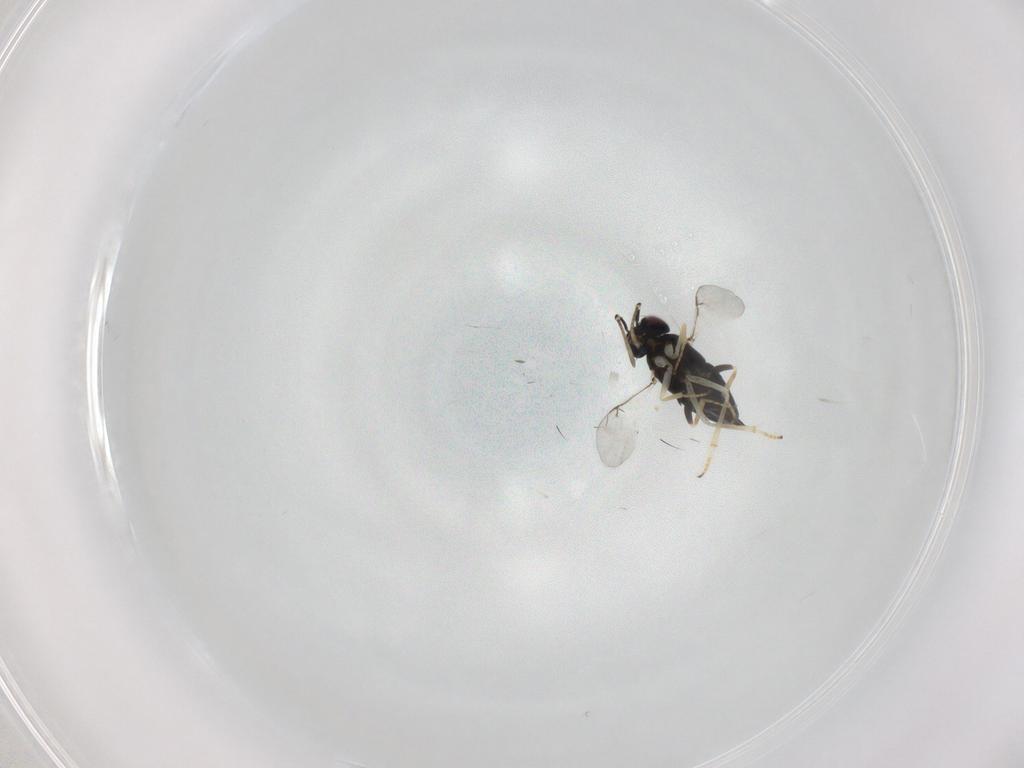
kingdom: Animalia
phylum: Arthropoda
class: Insecta
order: Hymenoptera
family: Encyrtidae
